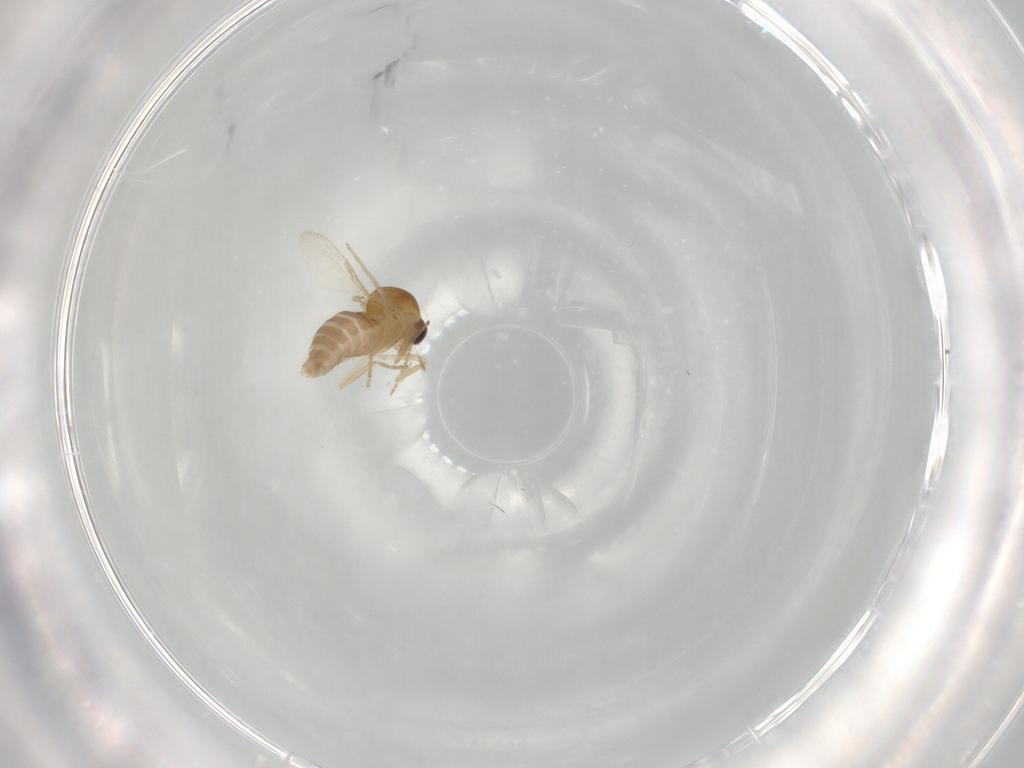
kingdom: Animalia
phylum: Arthropoda
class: Insecta
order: Diptera
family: Ceratopogonidae
